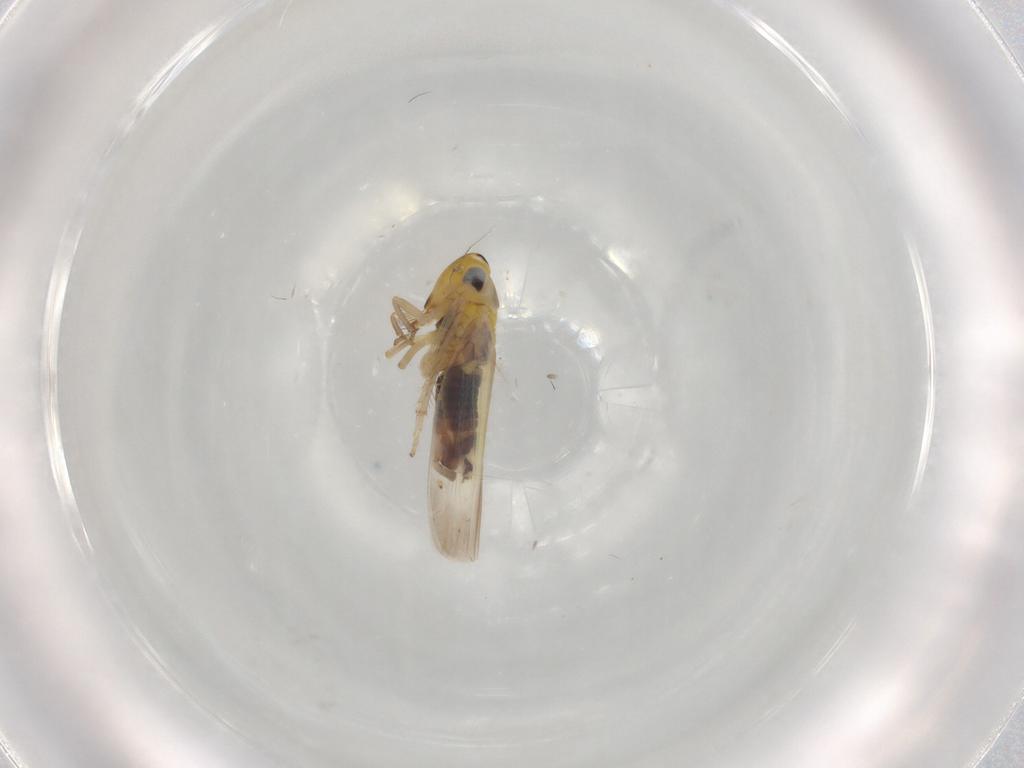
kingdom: Animalia
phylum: Arthropoda
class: Insecta
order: Hemiptera
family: Cicadellidae
